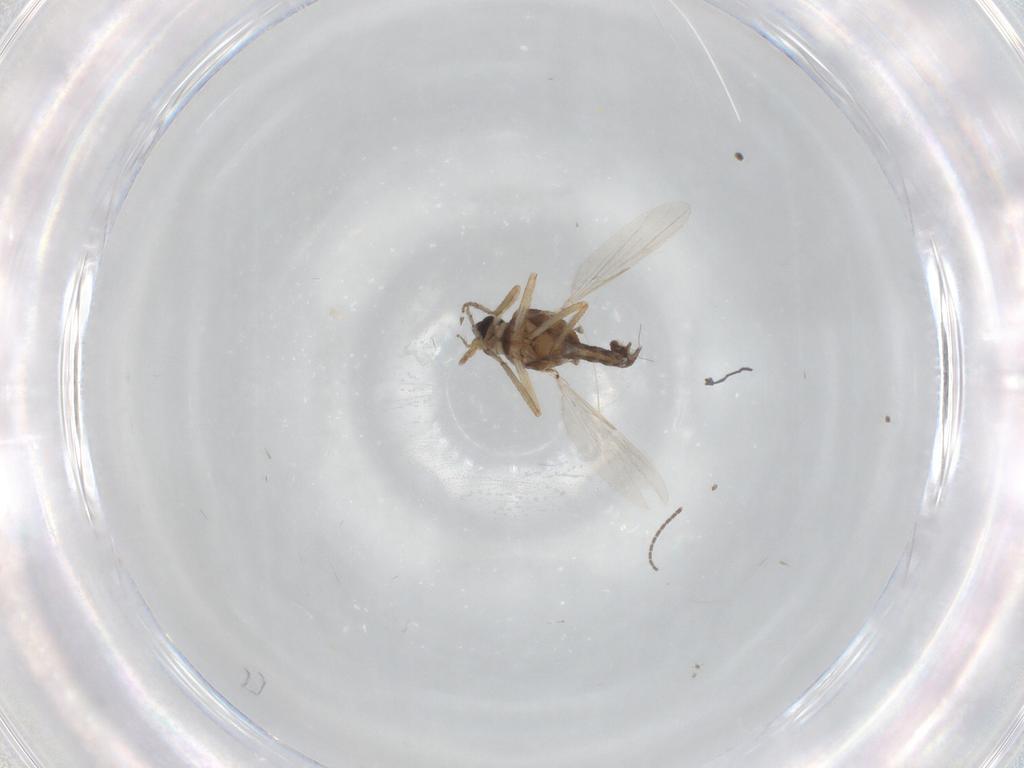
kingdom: Animalia
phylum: Arthropoda
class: Insecta
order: Diptera
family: Ceratopogonidae
